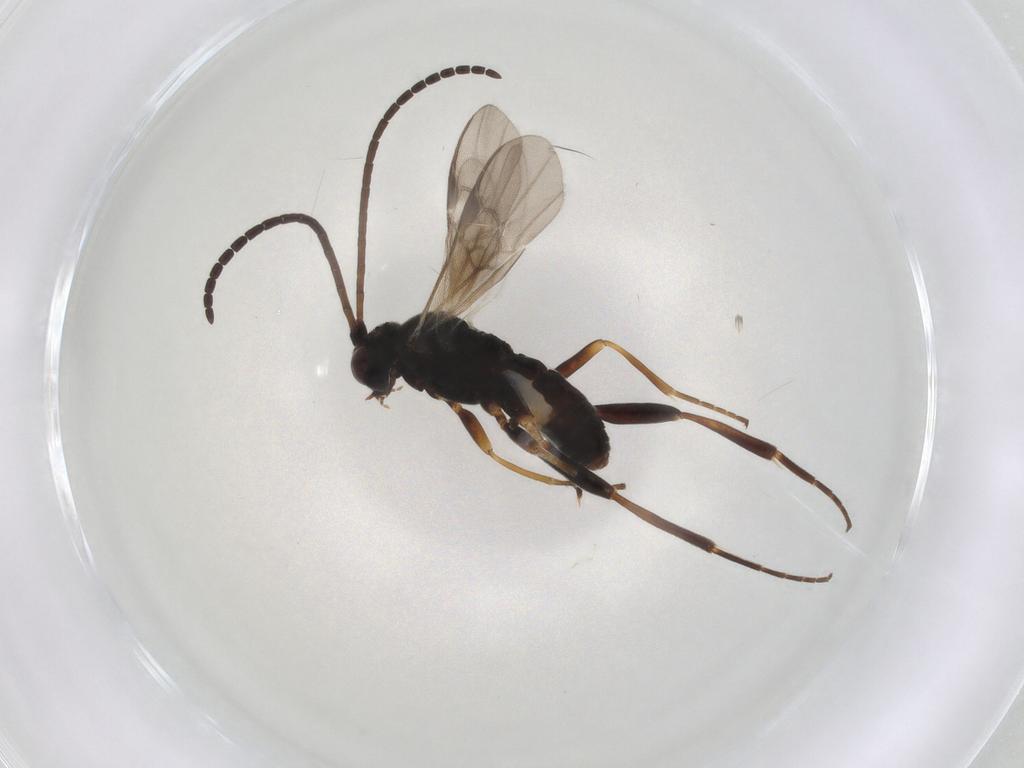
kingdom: Animalia
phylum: Arthropoda
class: Insecta
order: Hymenoptera
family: Braconidae
